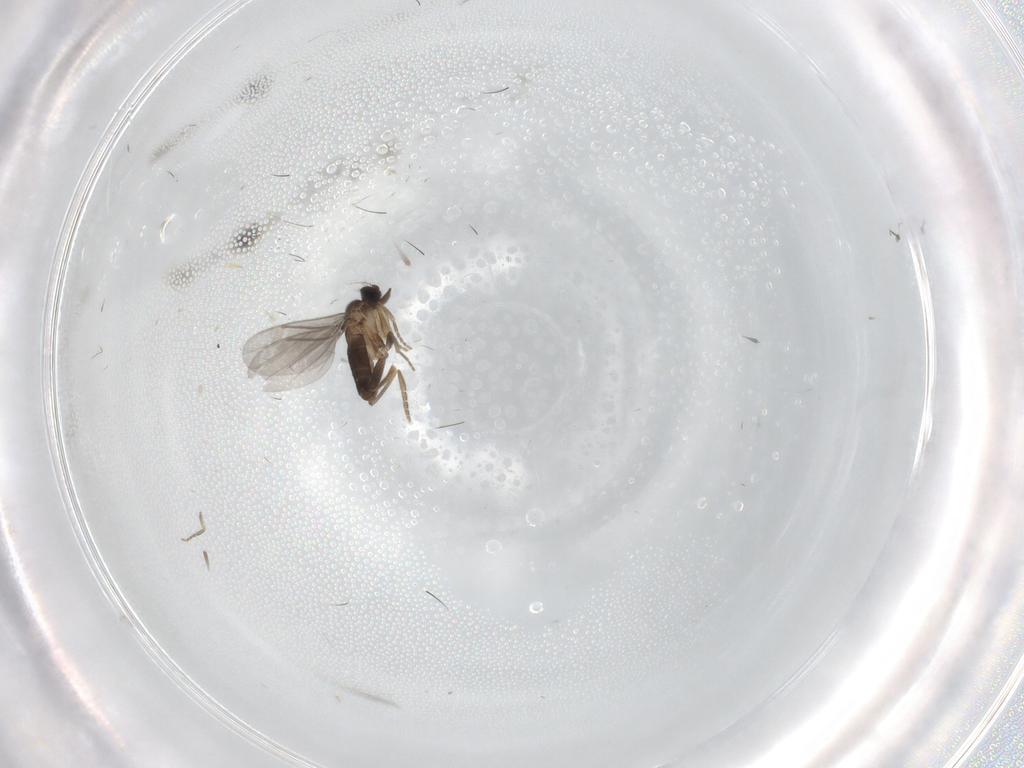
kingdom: Animalia
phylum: Arthropoda
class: Insecta
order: Diptera
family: Cecidomyiidae
